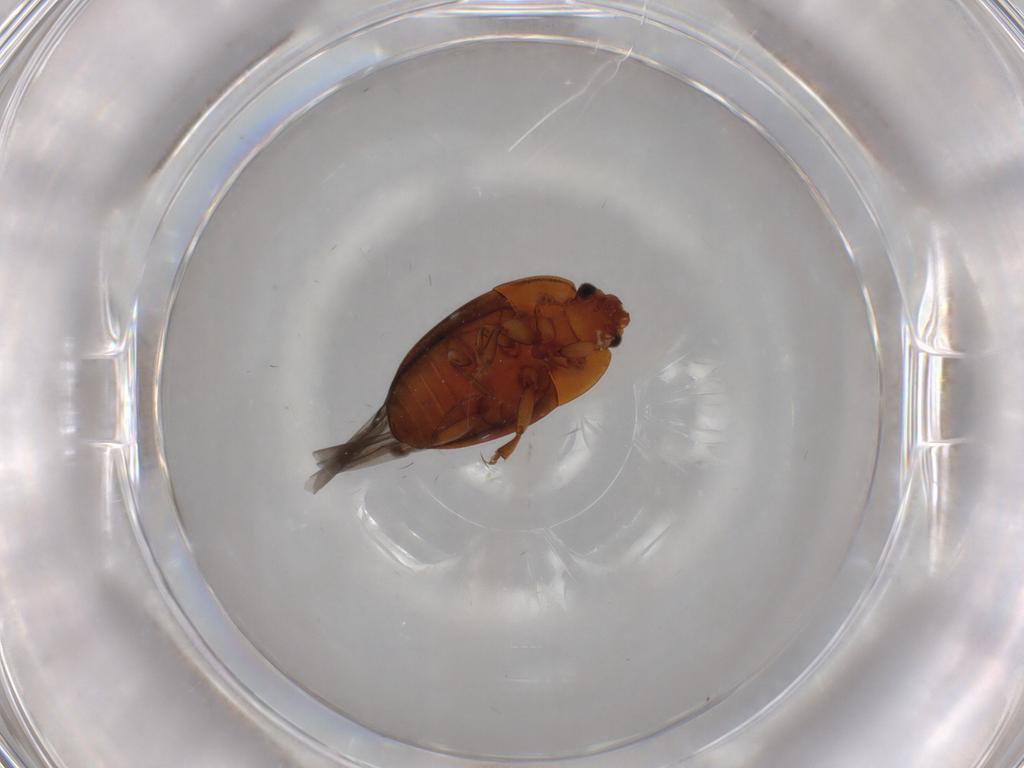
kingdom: Animalia
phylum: Arthropoda
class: Insecta
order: Coleoptera
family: Nitidulidae
